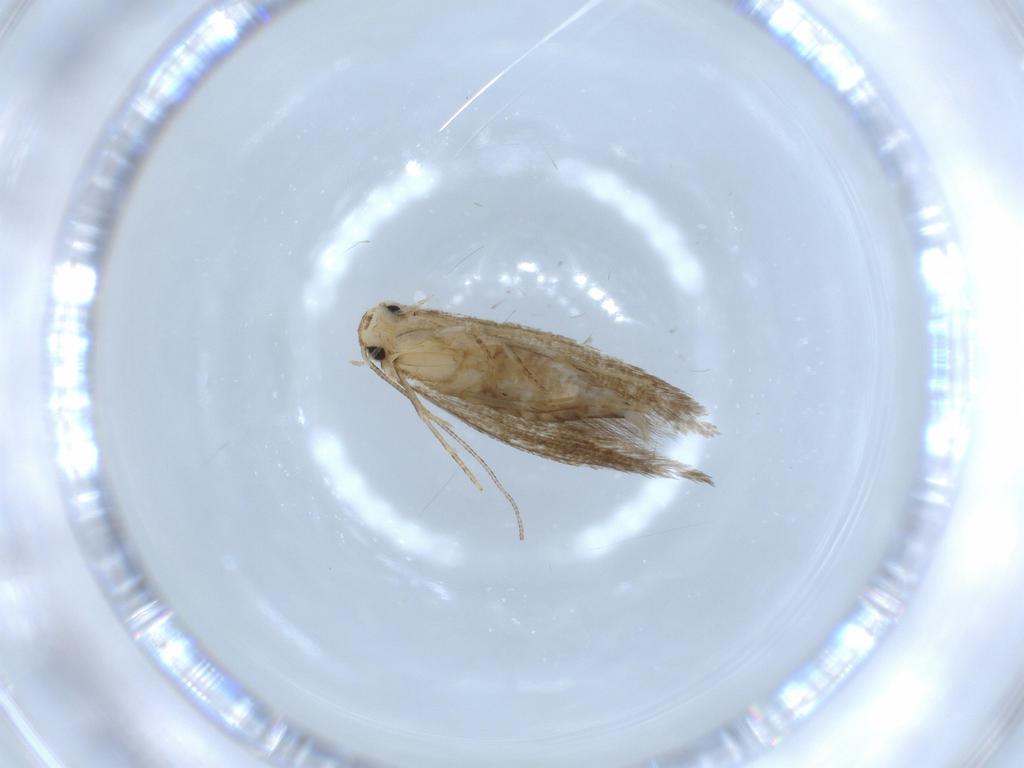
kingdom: Animalia
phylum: Arthropoda
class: Insecta
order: Lepidoptera
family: Tineidae
